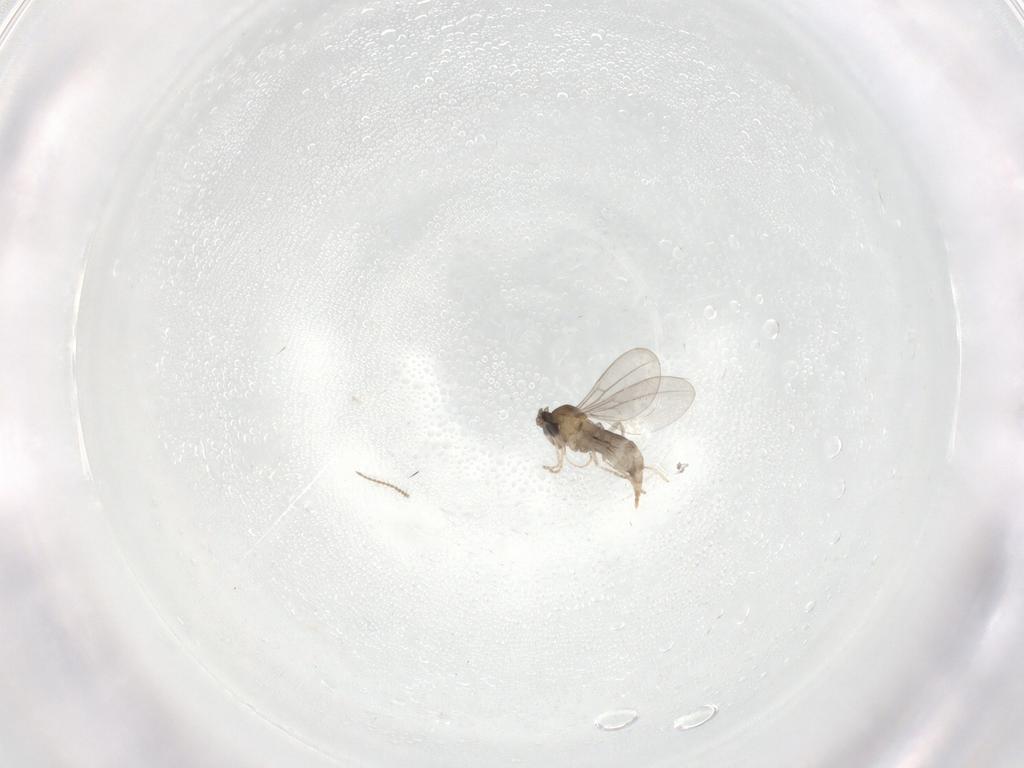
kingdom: Animalia
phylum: Arthropoda
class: Insecta
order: Diptera
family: Cecidomyiidae
